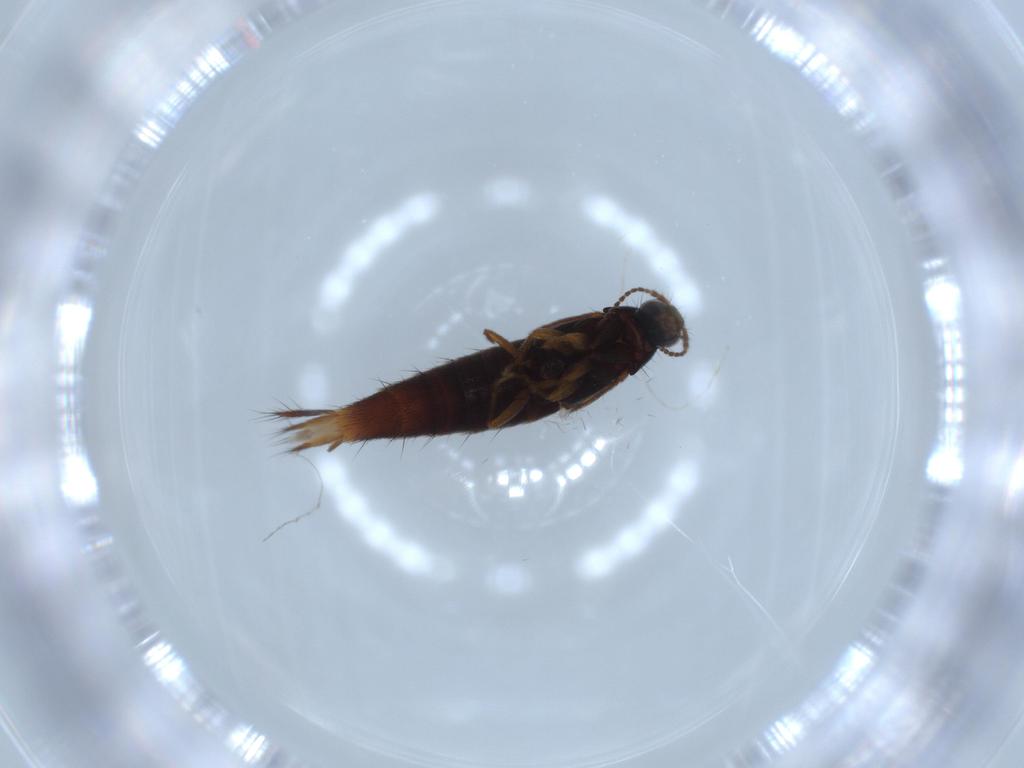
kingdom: Animalia
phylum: Arthropoda
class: Insecta
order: Coleoptera
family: Staphylinidae
